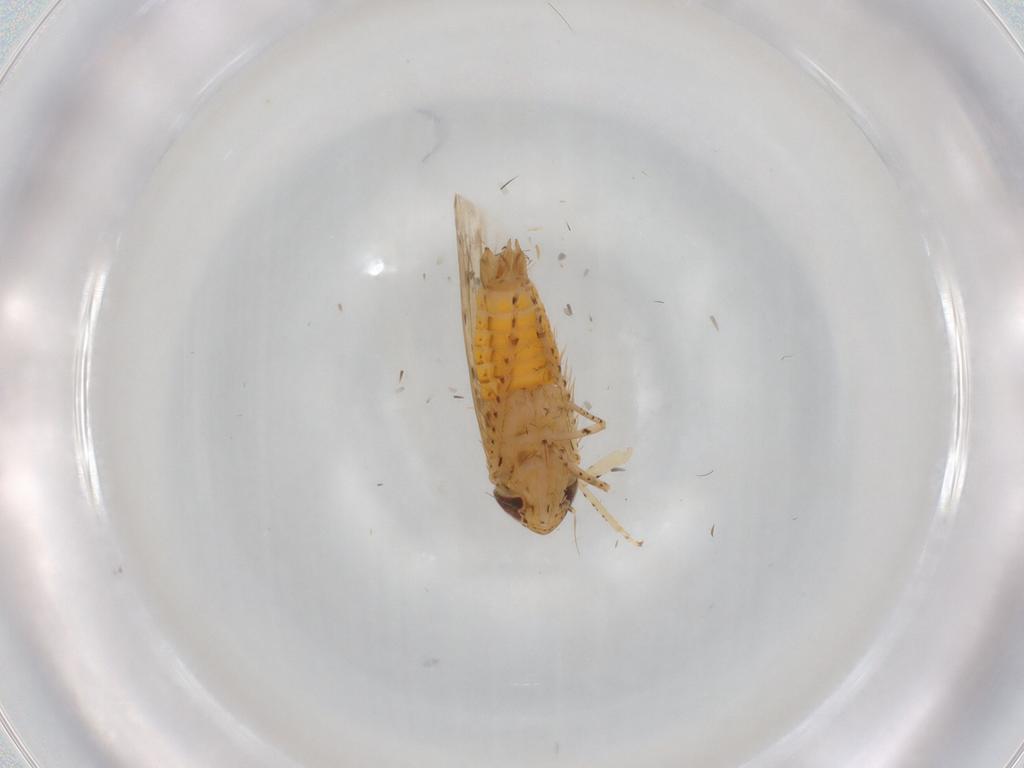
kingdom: Animalia
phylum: Arthropoda
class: Insecta
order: Hemiptera
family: Cicadellidae
